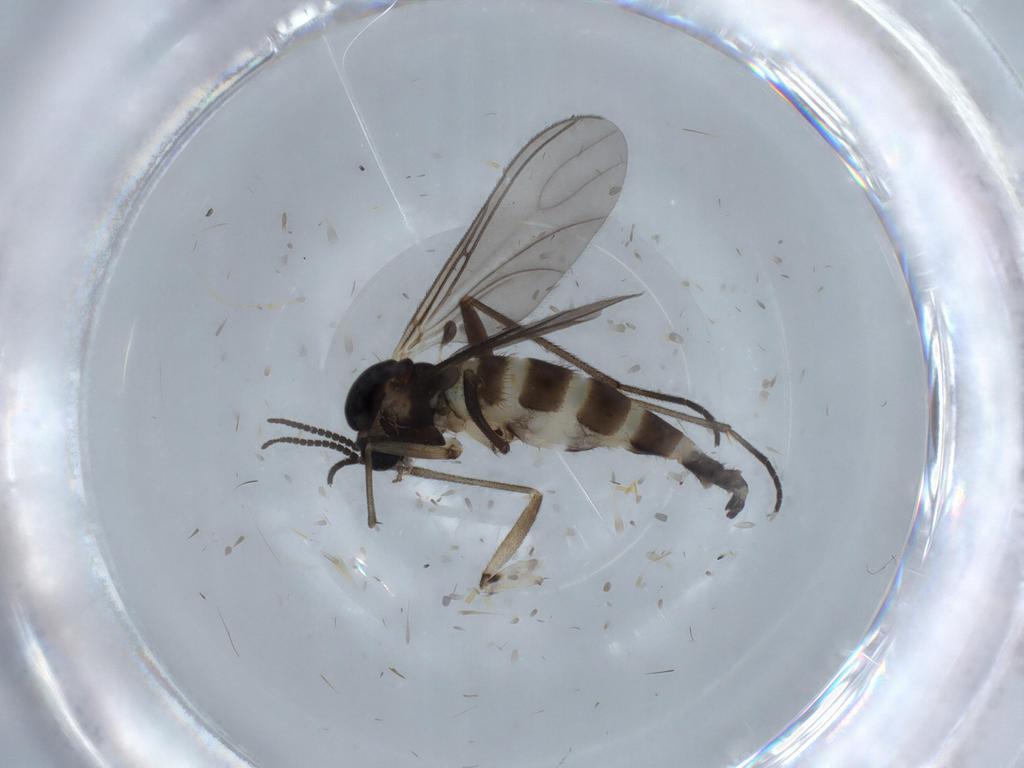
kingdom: Animalia
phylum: Arthropoda
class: Insecta
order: Diptera
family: Sciaridae
